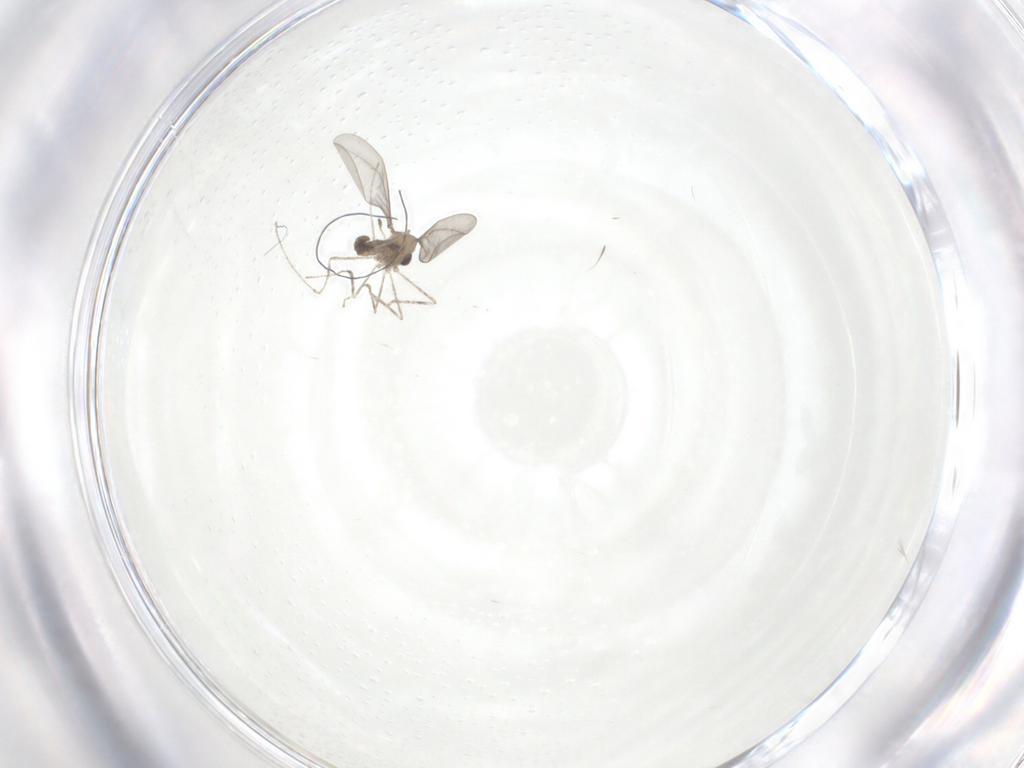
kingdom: Animalia
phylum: Arthropoda
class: Insecta
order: Diptera
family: Cecidomyiidae
